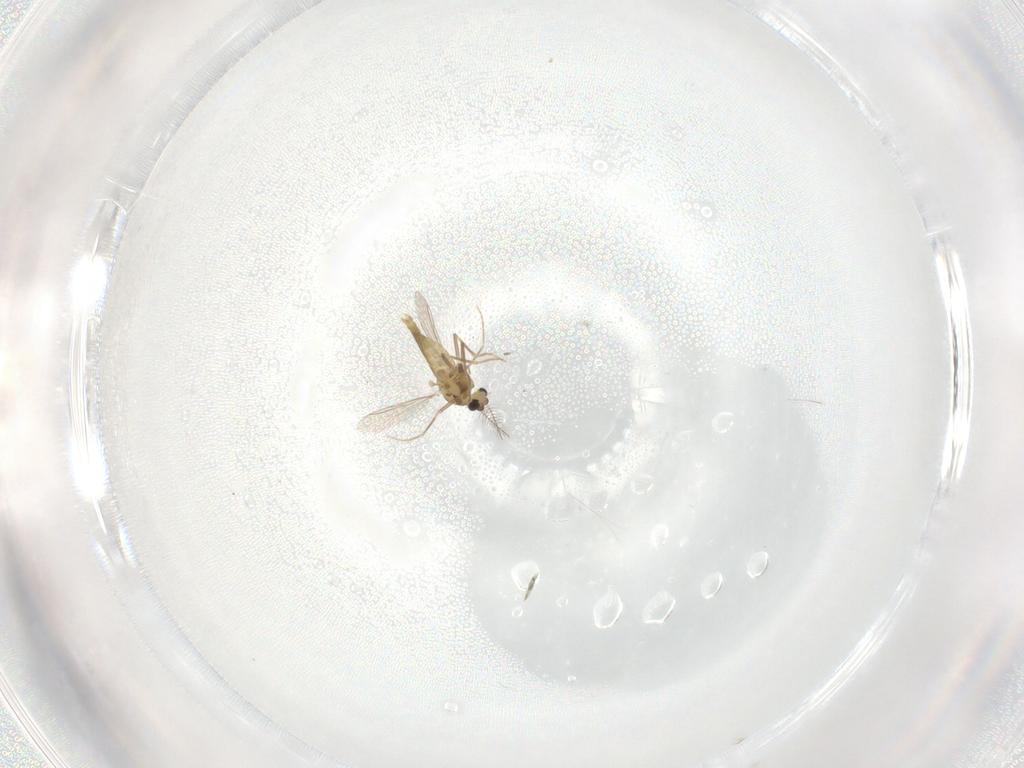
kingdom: Animalia
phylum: Arthropoda
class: Insecta
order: Diptera
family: Chironomidae
